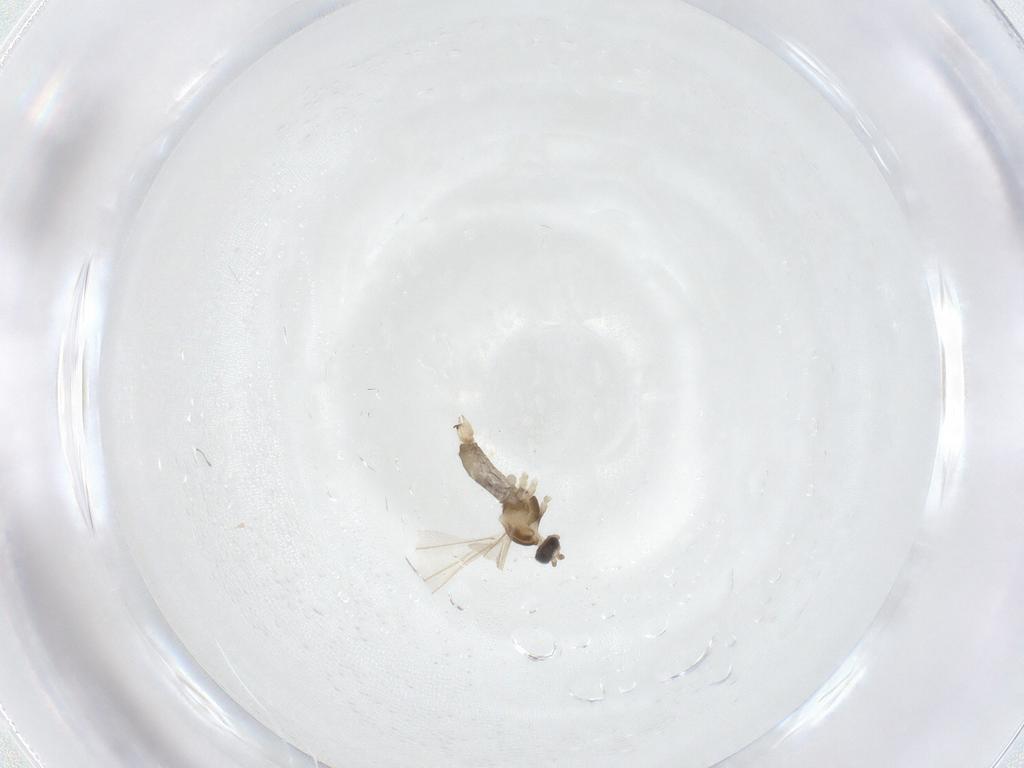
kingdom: Animalia
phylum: Arthropoda
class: Insecta
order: Diptera
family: Cecidomyiidae
